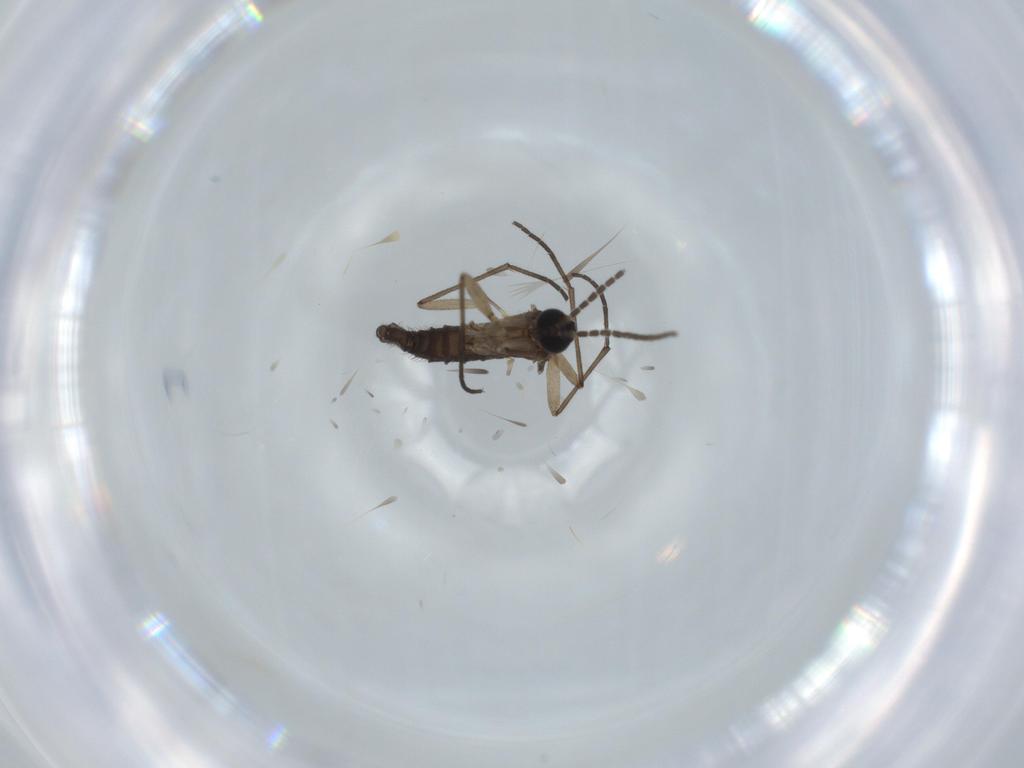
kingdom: Animalia
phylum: Arthropoda
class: Insecta
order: Diptera
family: Sciaridae
